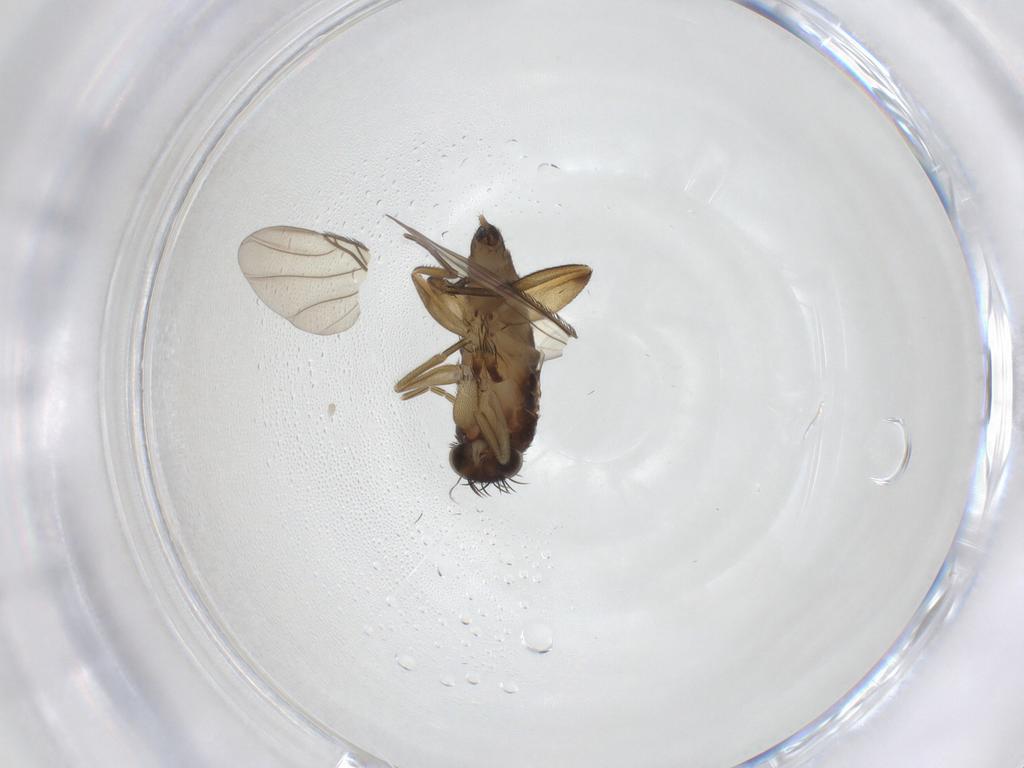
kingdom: Animalia
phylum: Arthropoda
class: Insecta
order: Diptera
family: Phoridae
